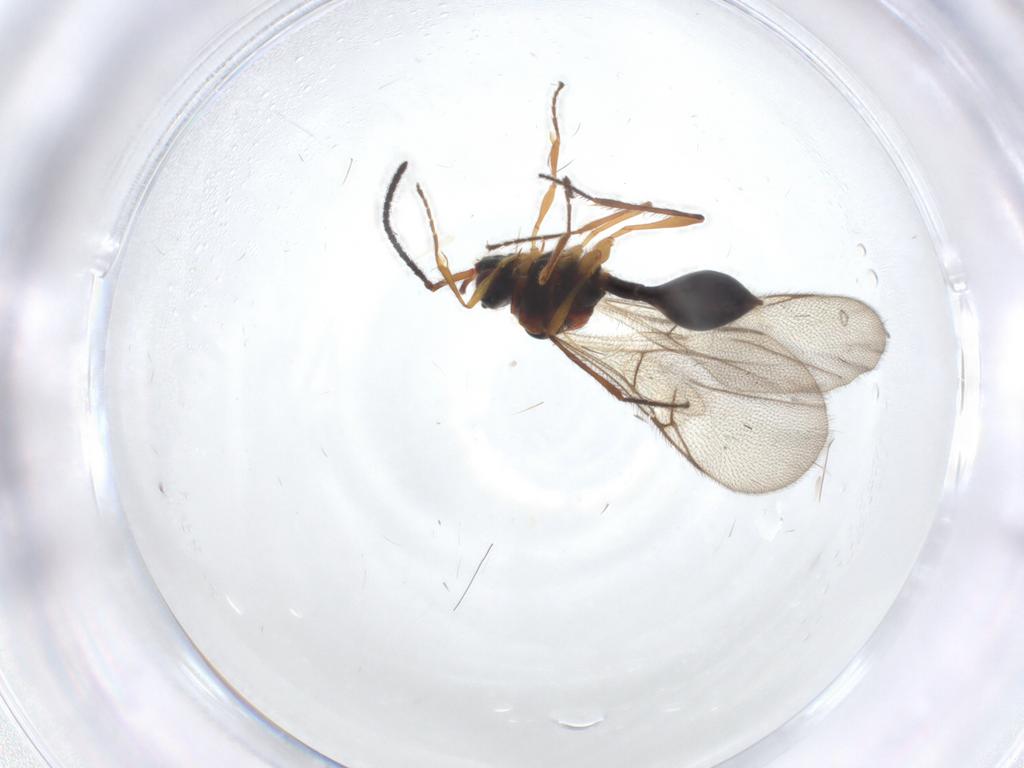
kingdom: Animalia
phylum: Arthropoda
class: Insecta
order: Hymenoptera
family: Diapriidae
